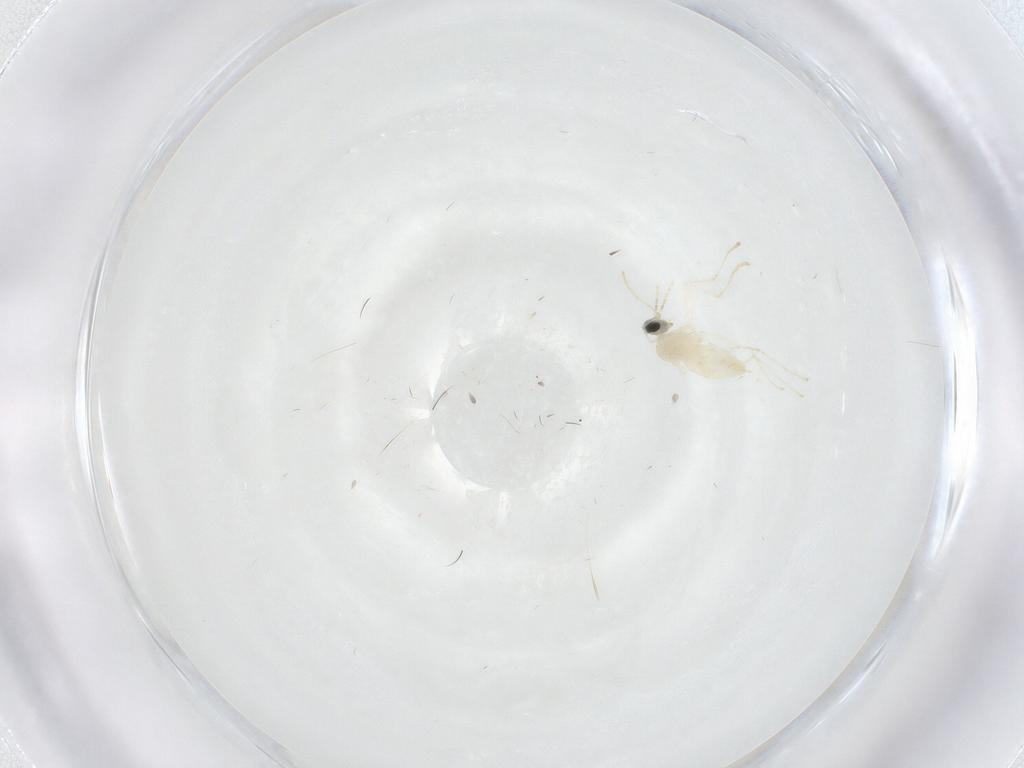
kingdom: Animalia
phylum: Arthropoda
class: Insecta
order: Diptera
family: Cecidomyiidae
